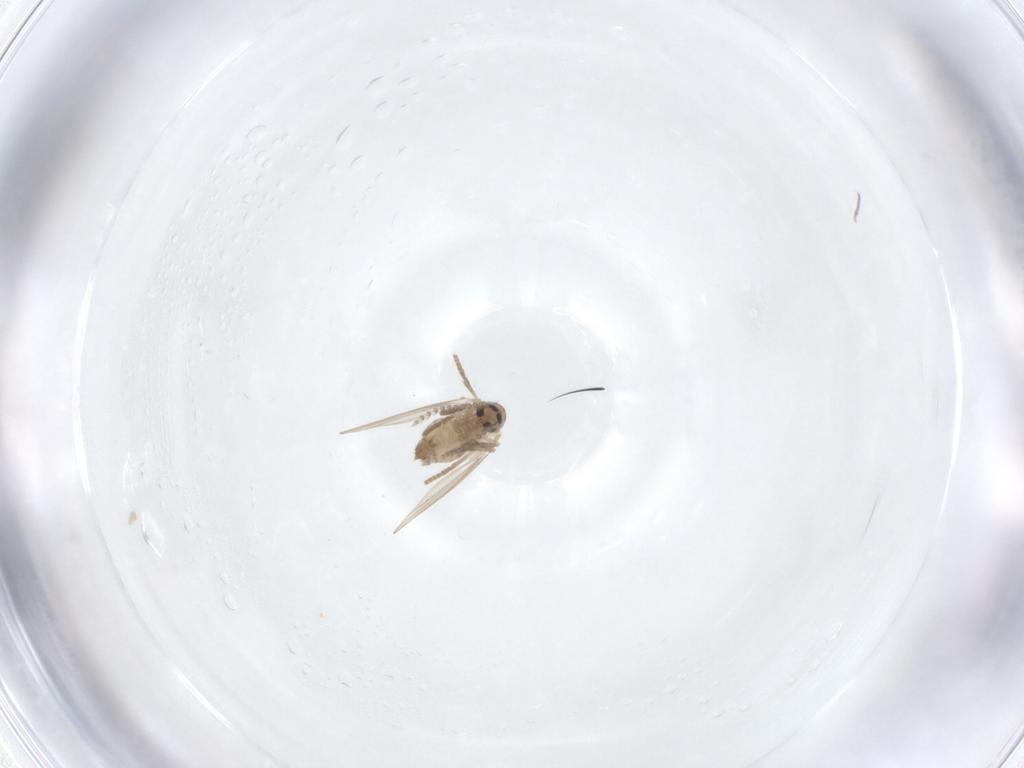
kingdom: Animalia
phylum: Arthropoda
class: Insecta
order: Diptera
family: Psychodidae
